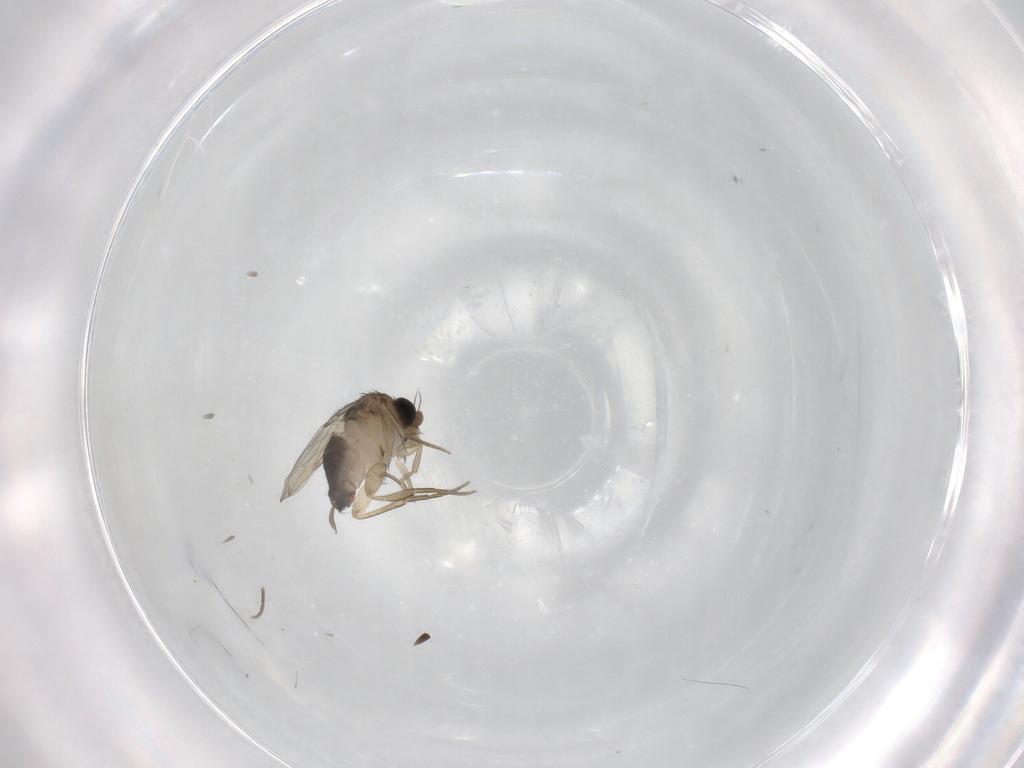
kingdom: Animalia
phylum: Arthropoda
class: Insecta
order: Diptera
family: Phoridae
